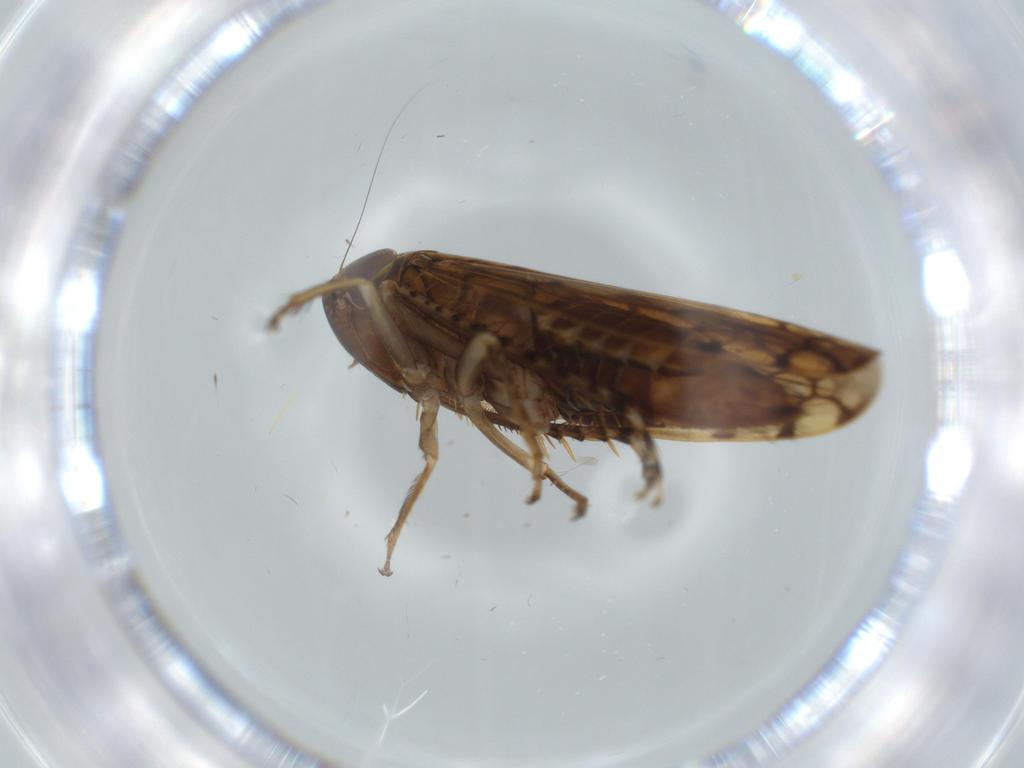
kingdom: Animalia
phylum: Arthropoda
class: Insecta
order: Hemiptera
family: Cicadellidae
